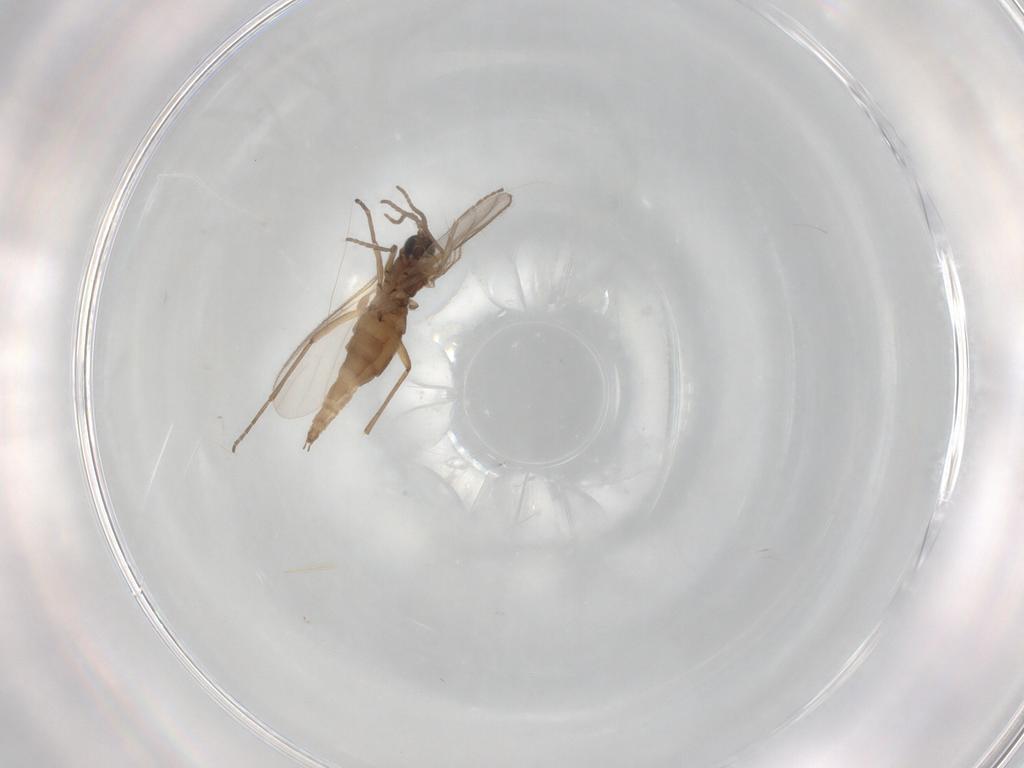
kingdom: Animalia
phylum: Arthropoda
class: Insecta
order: Diptera
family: Sciaridae
